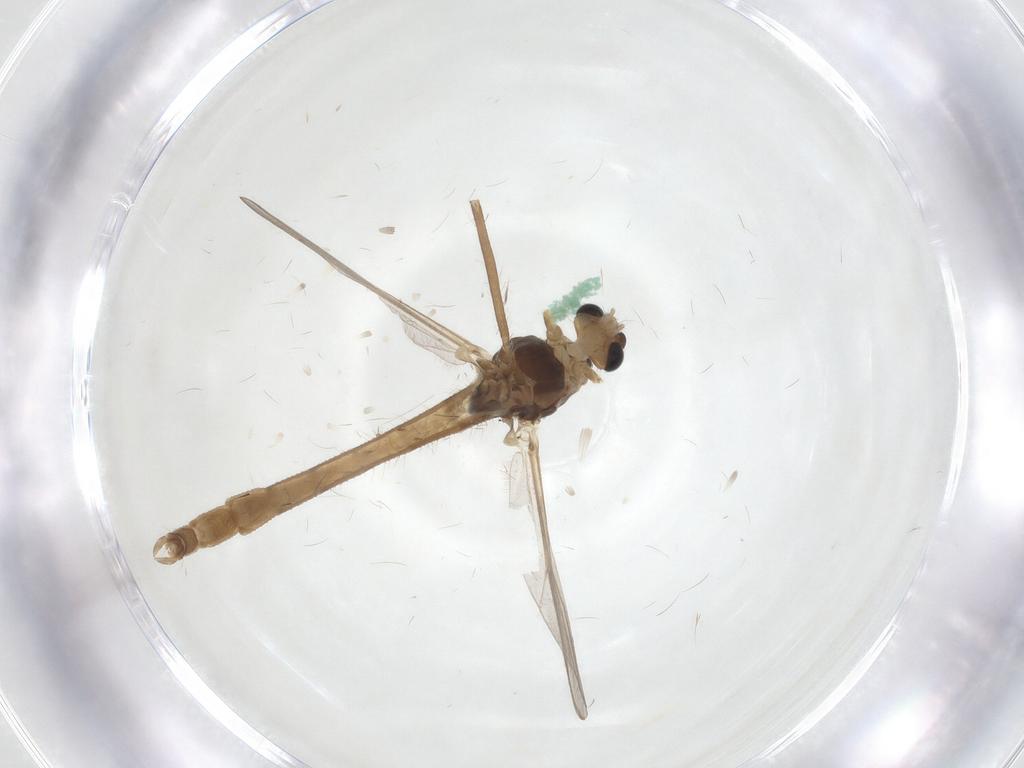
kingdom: Animalia
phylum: Arthropoda
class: Insecta
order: Diptera
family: Chironomidae
